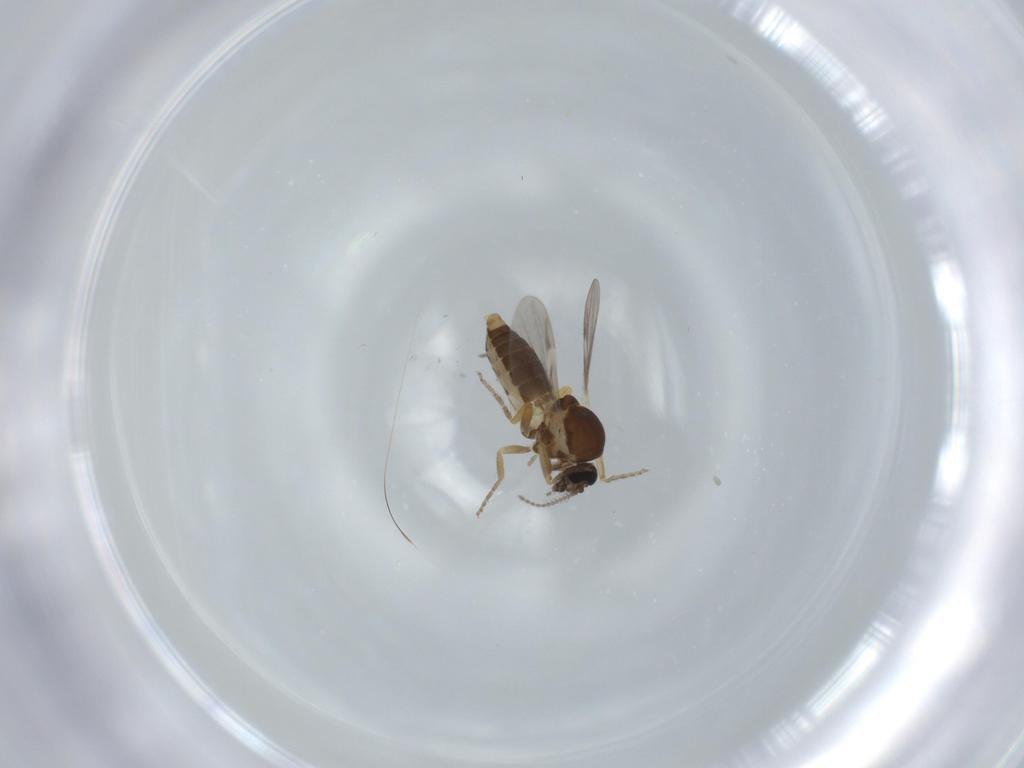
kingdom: Animalia
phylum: Arthropoda
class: Insecta
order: Diptera
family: Ceratopogonidae
